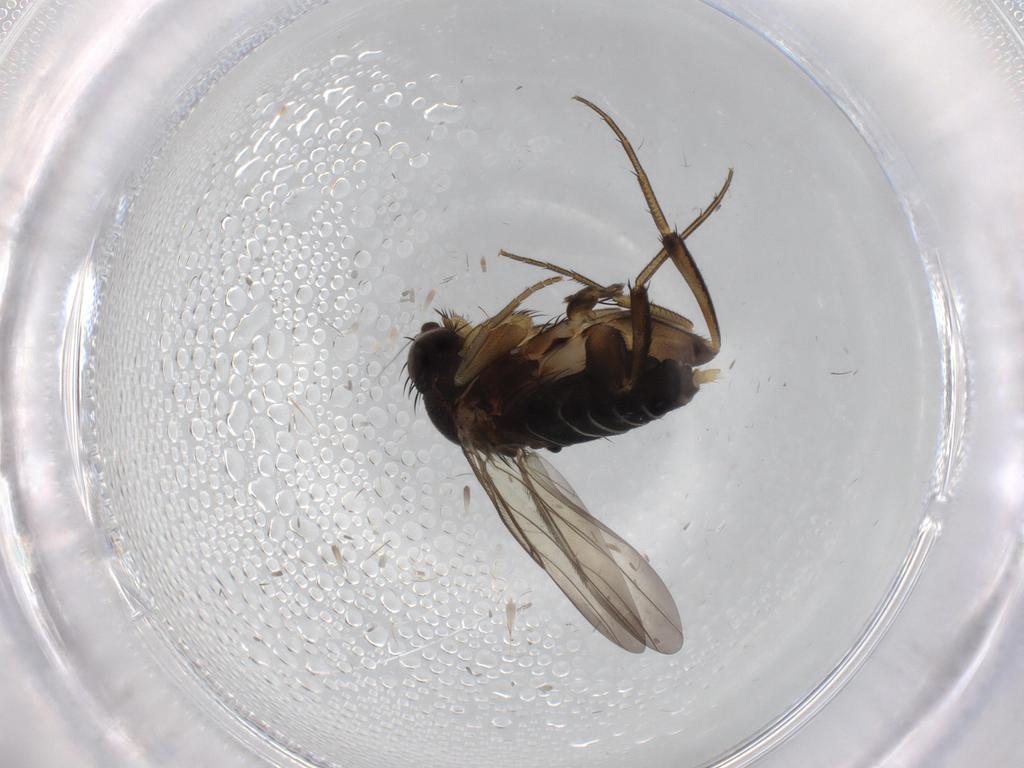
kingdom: Animalia
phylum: Arthropoda
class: Insecta
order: Diptera
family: Phoridae
